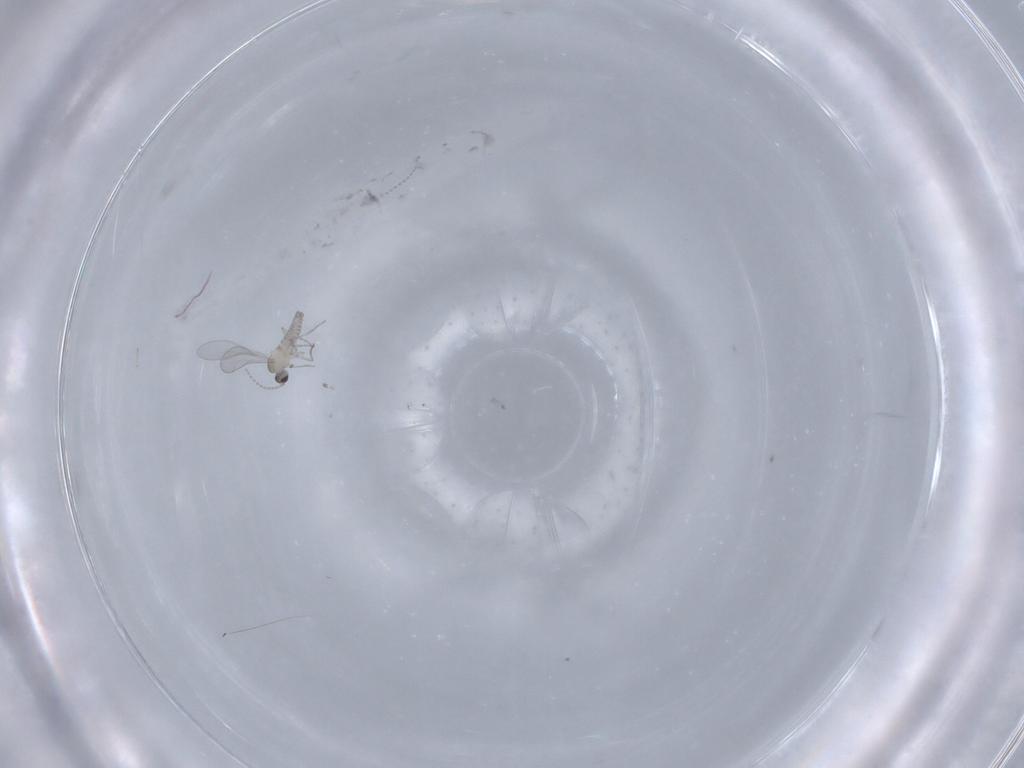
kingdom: Animalia
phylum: Arthropoda
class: Insecta
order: Diptera
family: Cecidomyiidae
